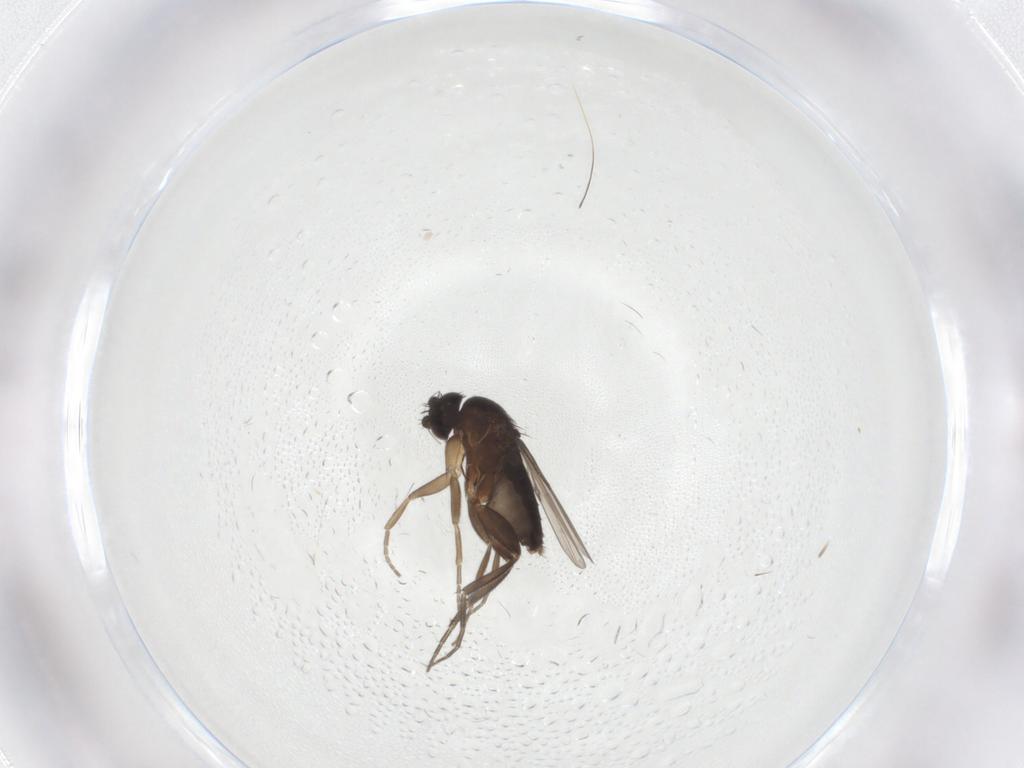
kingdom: Animalia
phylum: Arthropoda
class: Insecta
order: Diptera
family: Phoridae
